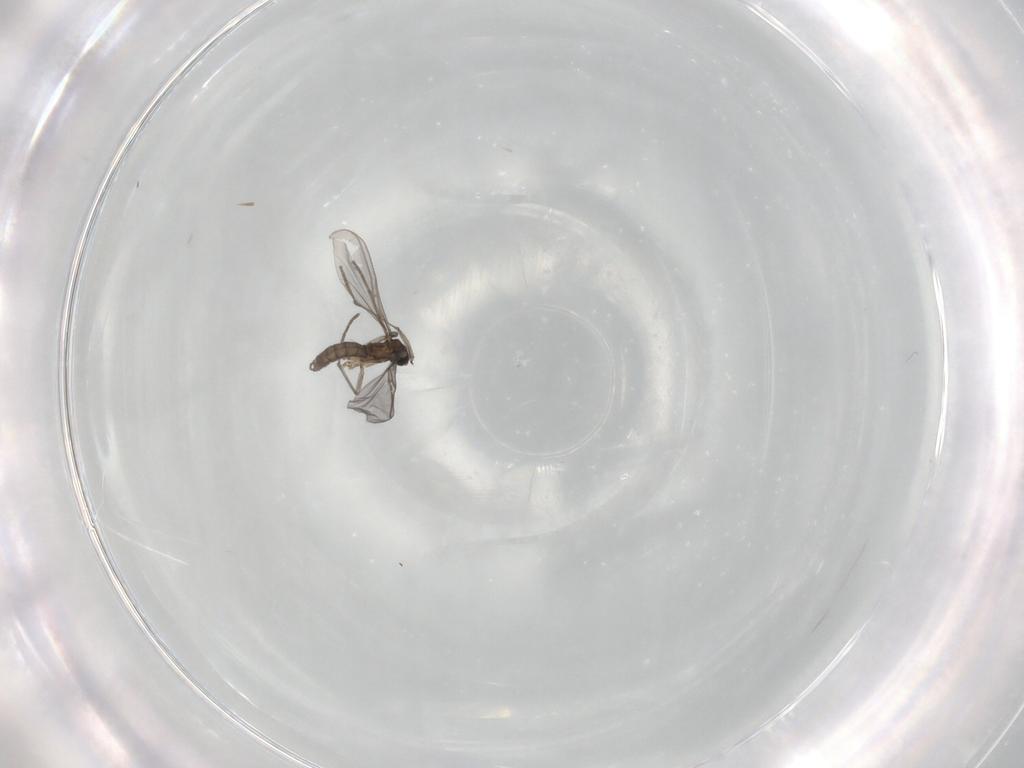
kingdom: Animalia
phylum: Arthropoda
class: Insecta
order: Diptera
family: Sciaridae
